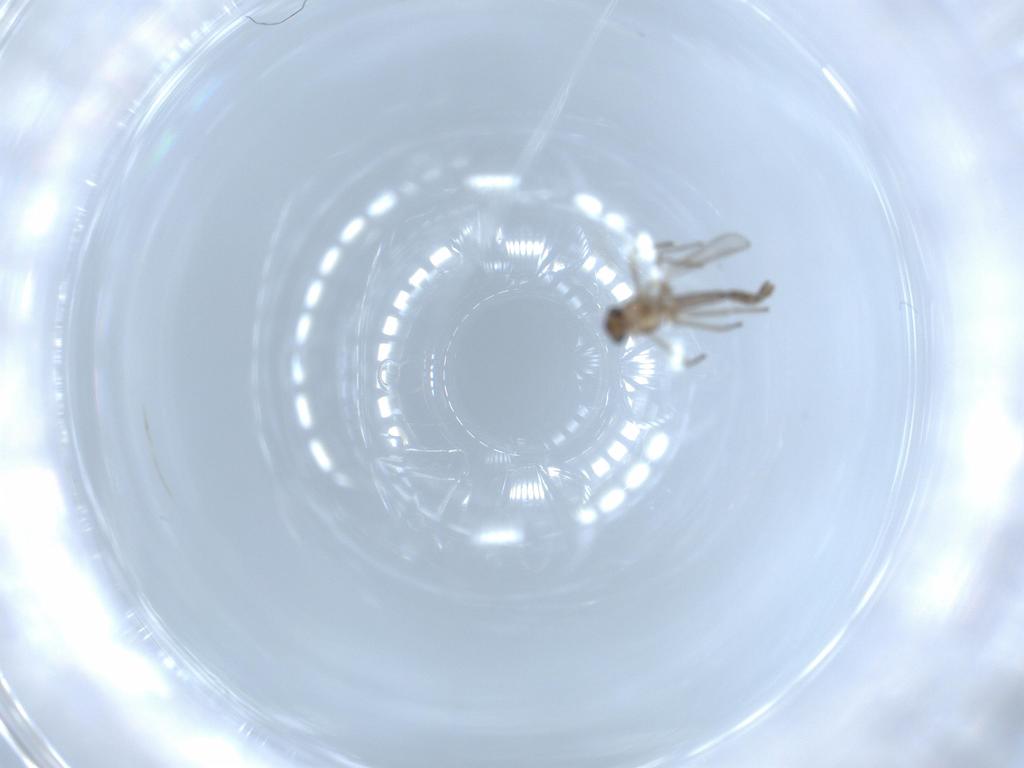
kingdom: Animalia
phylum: Arthropoda
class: Insecta
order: Diptera
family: Chironomidae
